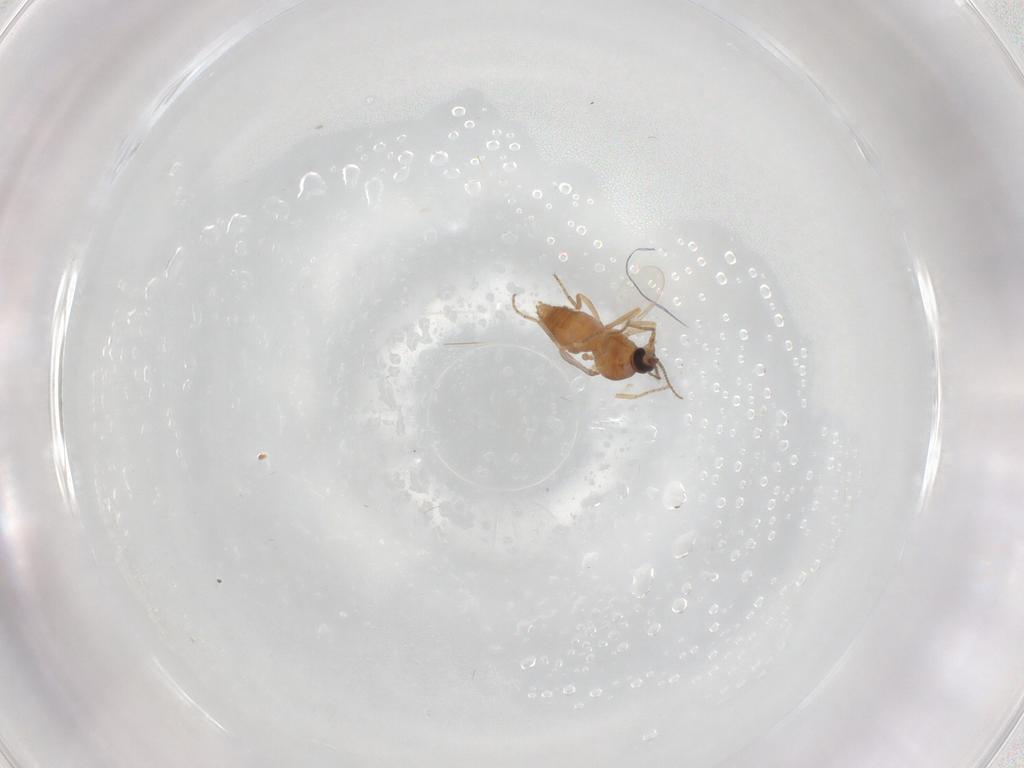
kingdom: Animalia
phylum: Arthropoda
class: Insecta
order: Diptera
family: Ceratopogonidae
